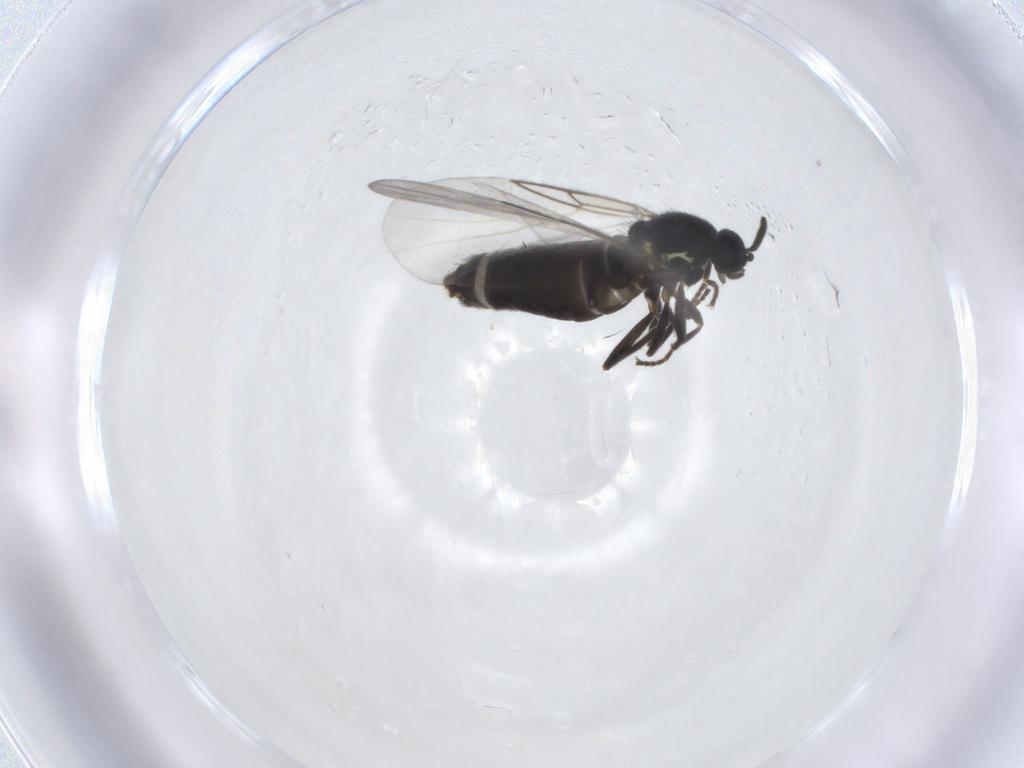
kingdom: Animalia
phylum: Arthropoda
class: Insecta
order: Diptera
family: Scatopsidae
